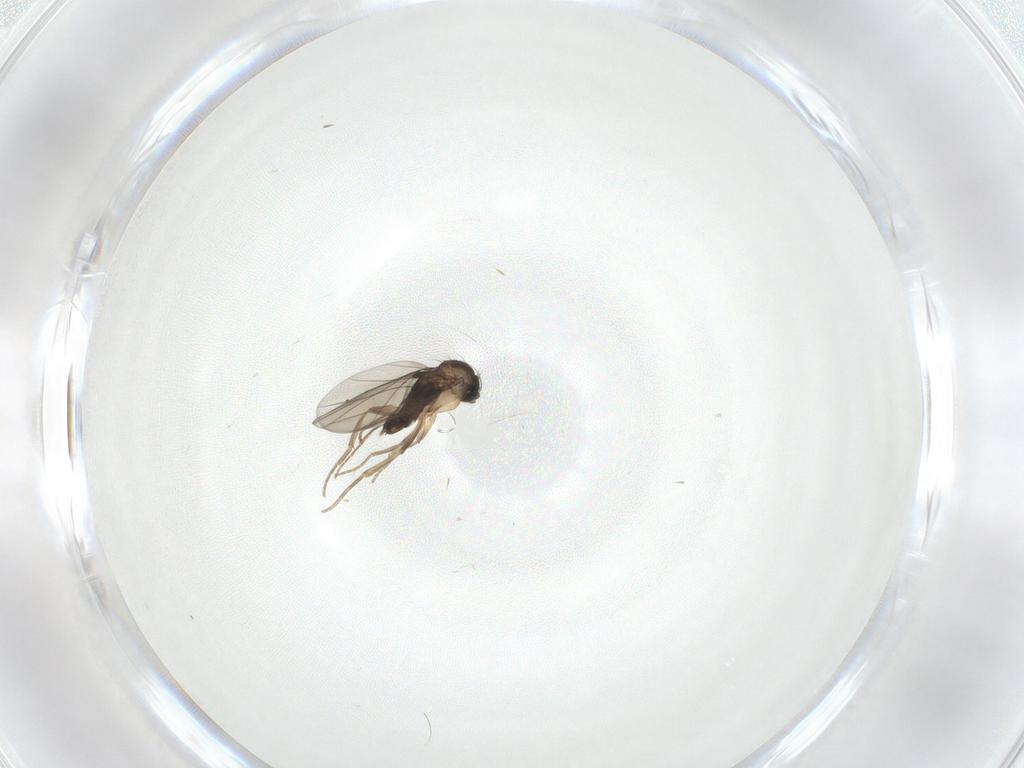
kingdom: Animalia
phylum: Arthropoda
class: Insecta
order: Diptera
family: Phoridae
